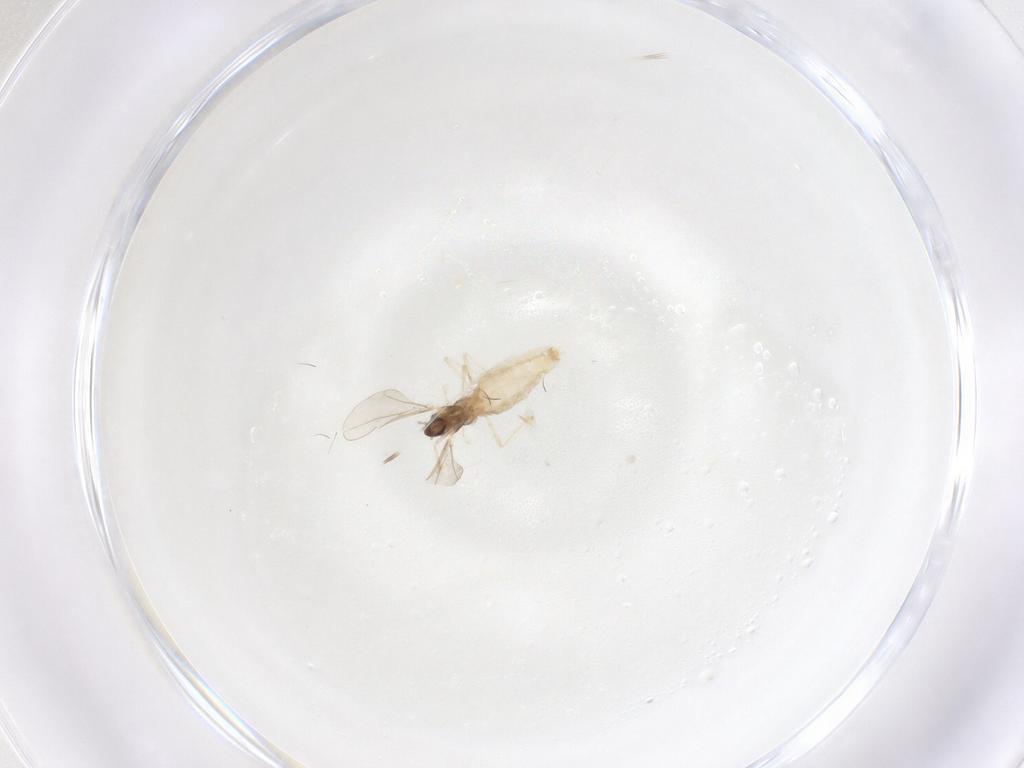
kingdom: Animalia
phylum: Arthropoda
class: Insecta
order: Diptera
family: Cecidomyiidae
